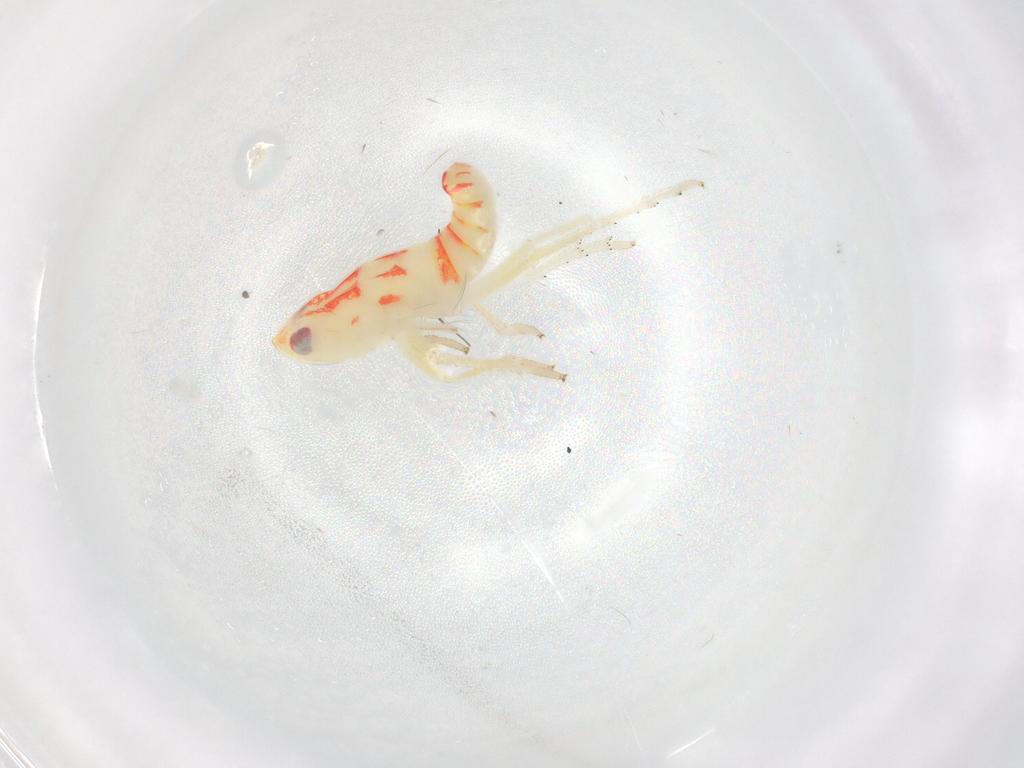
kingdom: Animalia
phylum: Arthropoda
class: Insecta
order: Hemiptera
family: Tropiduchidae
